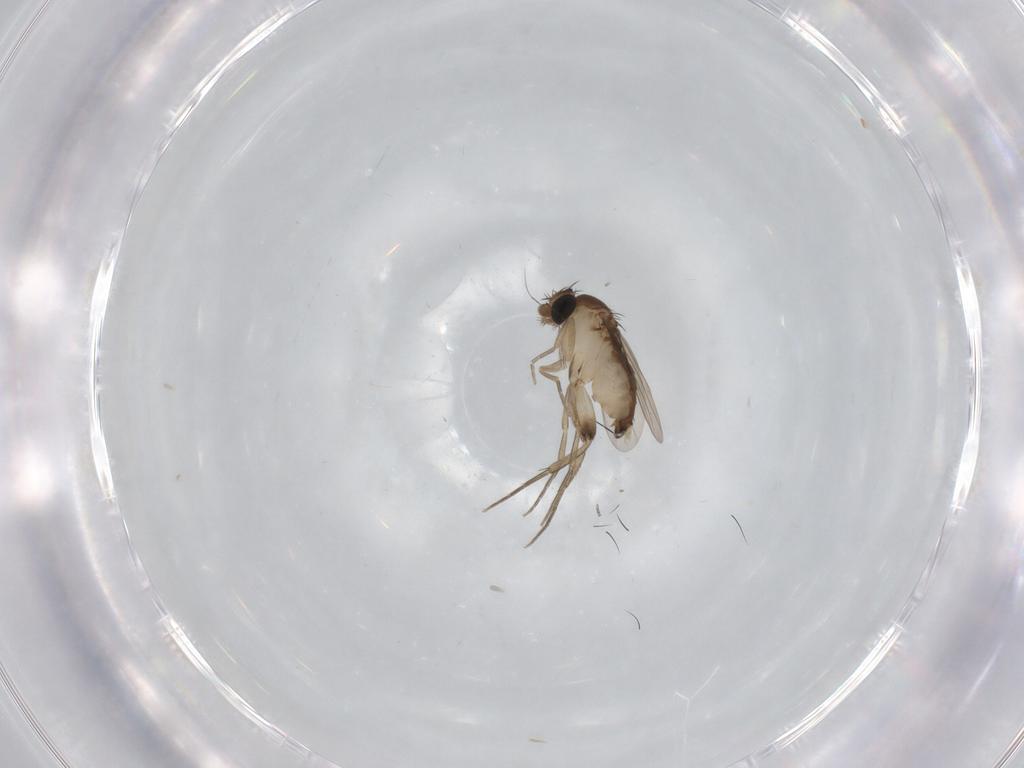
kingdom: Animalia
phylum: Arthropoda
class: Insecta
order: Diptera
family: Phoridae
